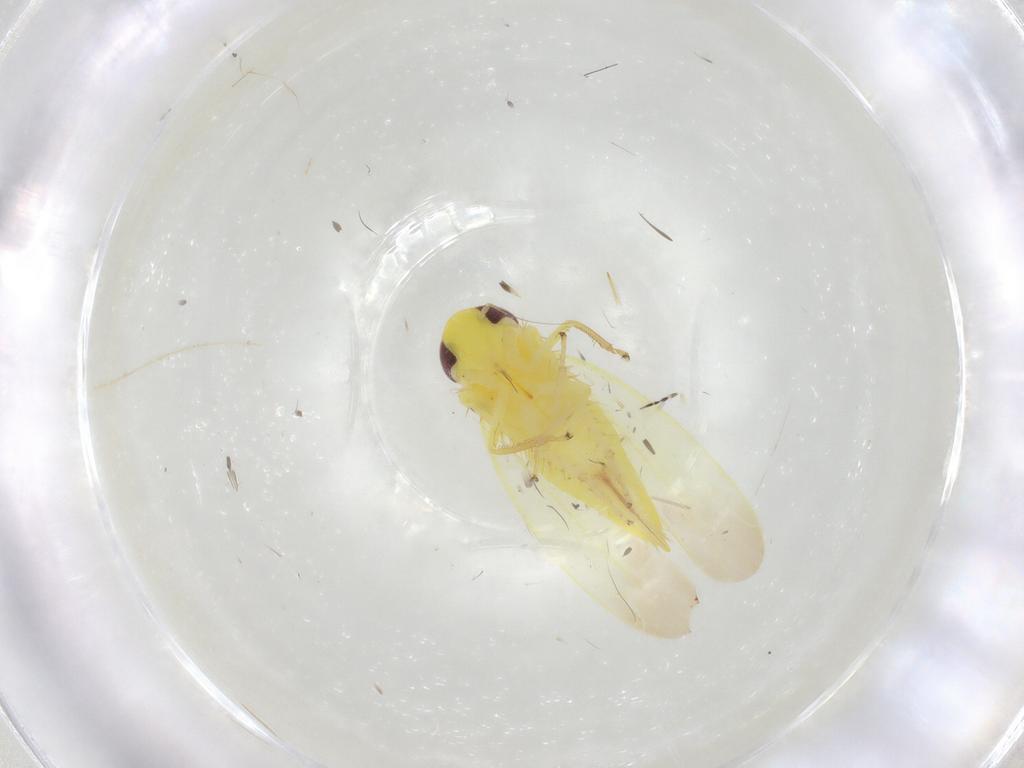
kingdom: Animalia
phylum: Arthropoda
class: Insecta
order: Hemiptera
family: Cicadellidae
